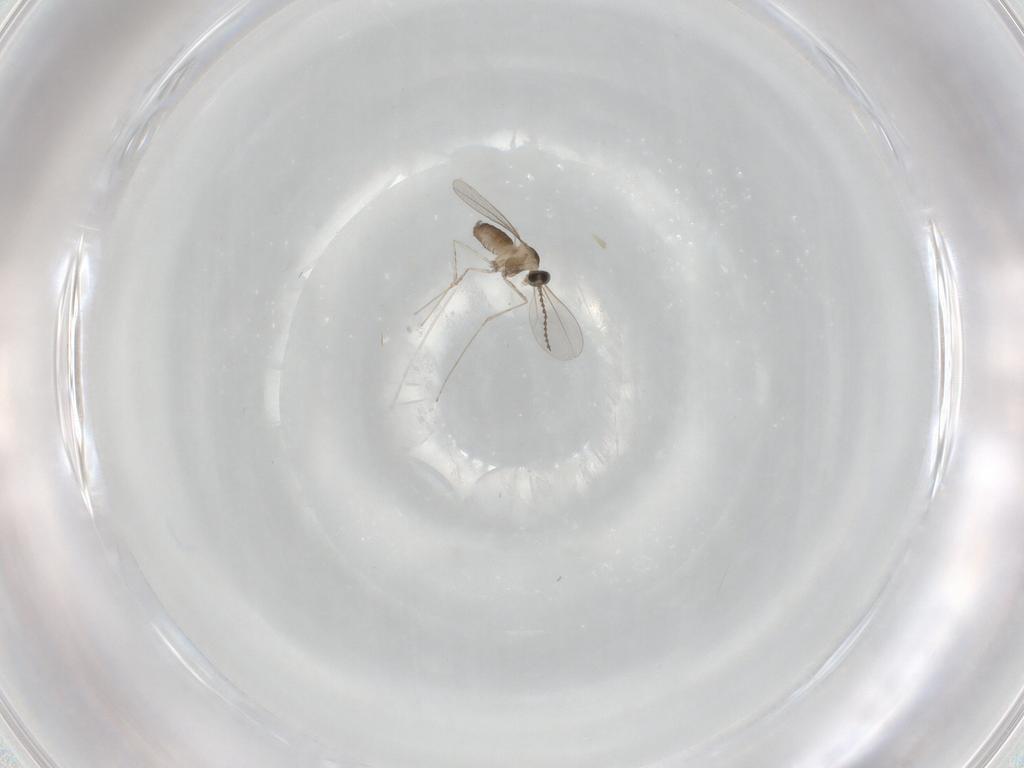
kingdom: Animalia
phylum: Arthropoda
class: Insecta
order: Diptera
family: Cecidomyiidae
